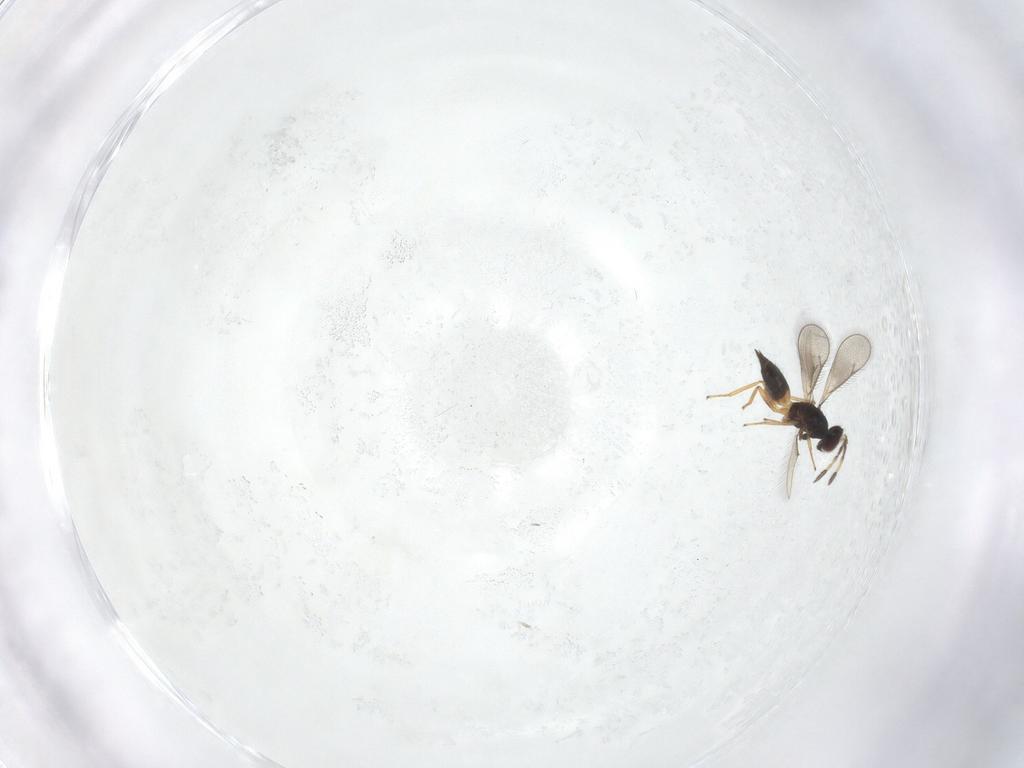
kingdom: Animalia
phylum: Arthropoda
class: Insecta
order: Hymenoptera
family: Eulophidae
